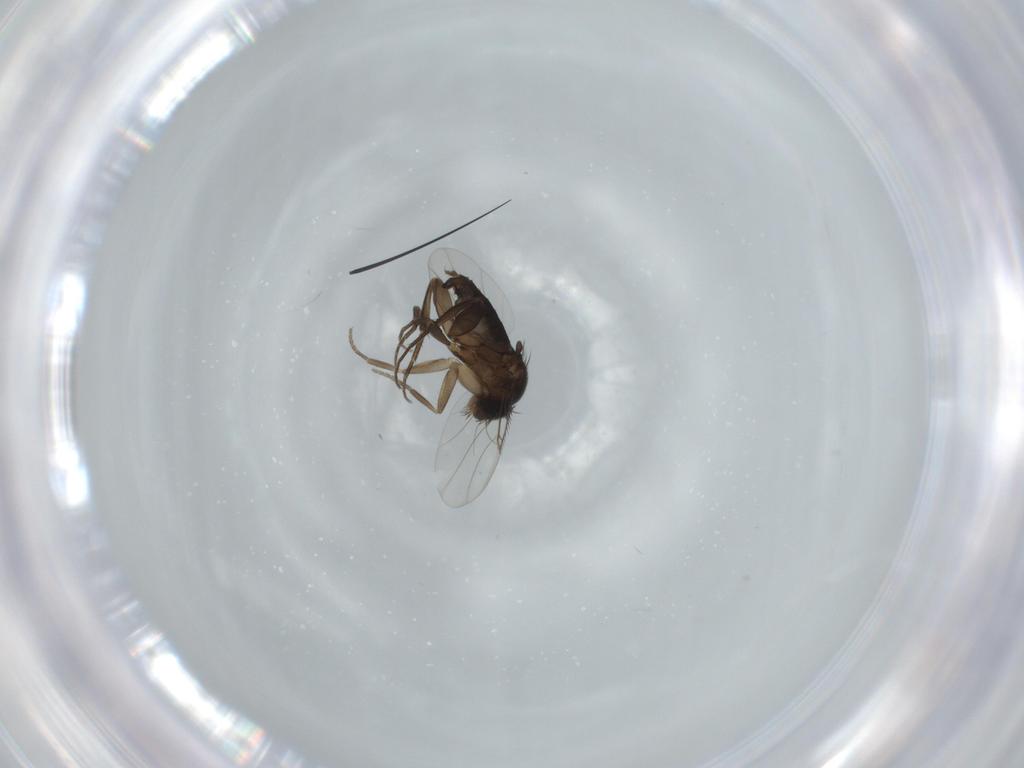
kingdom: Animalia
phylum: Arthropoda
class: Insecta
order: Diptera
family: Phoridae
